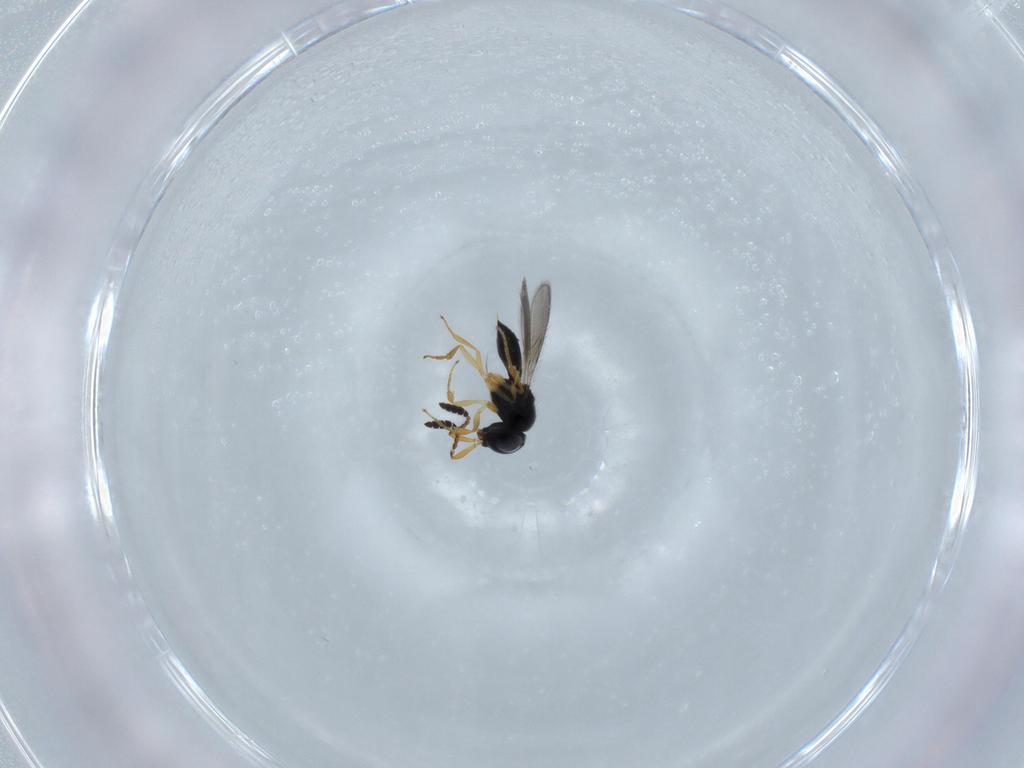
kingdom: Animalia
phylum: Arthropoda
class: Insecta
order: Hymenoptera
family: Scelionidae
